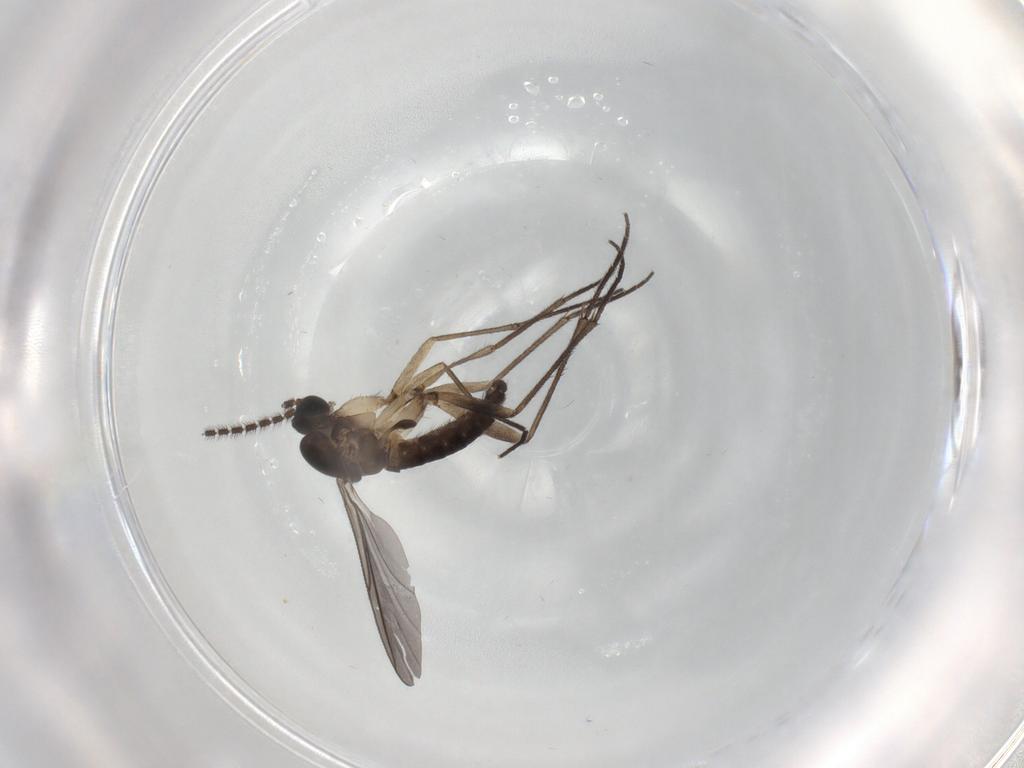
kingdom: Animalia
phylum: Arthropoda
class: Insecta
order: Diptera
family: Sciaridae
